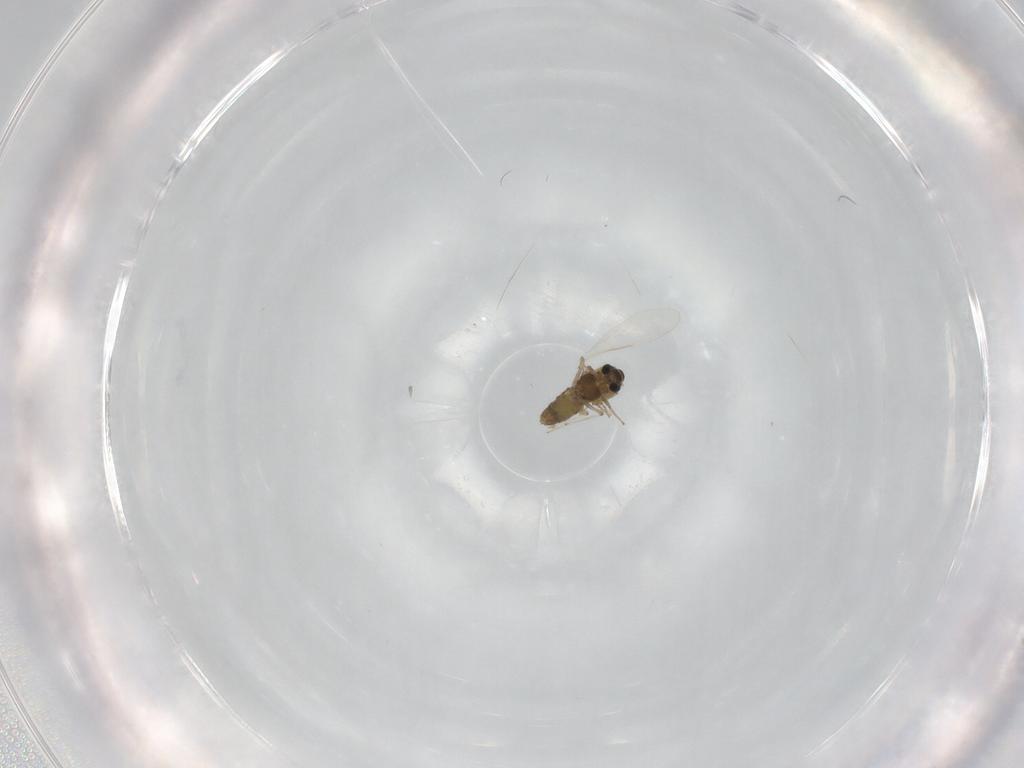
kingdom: Animalia
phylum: Arthropoda
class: Insecta
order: Diptera
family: Chironomidae
